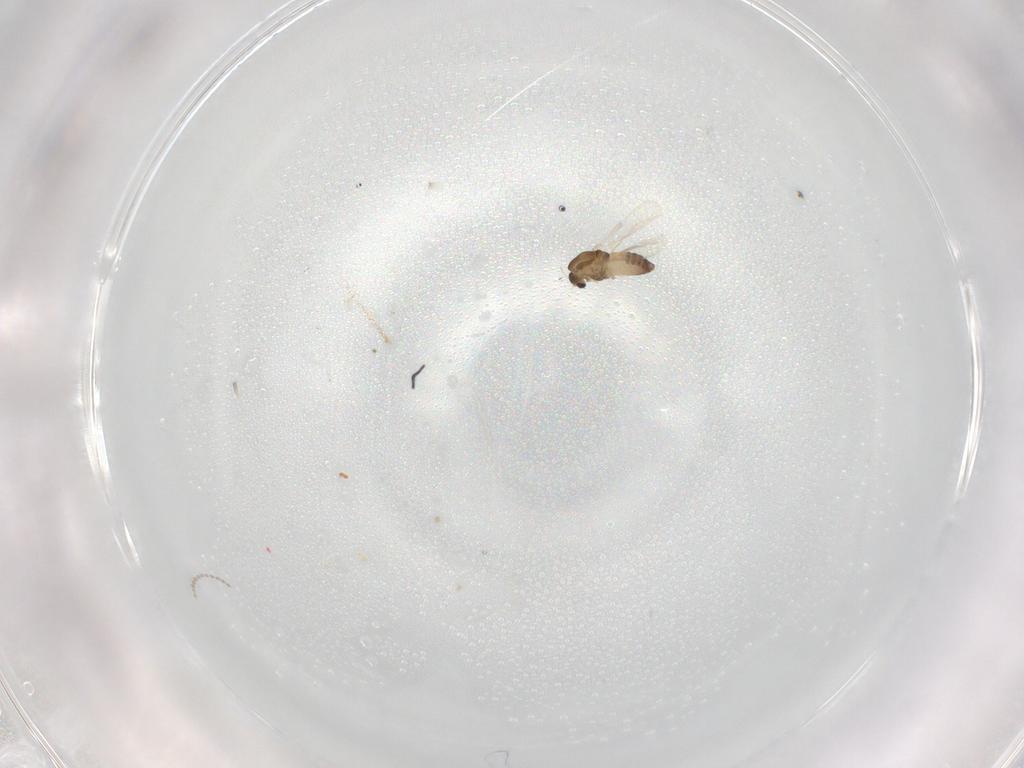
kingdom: Animalia
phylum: Arthropoda
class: Insecta
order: Diptera
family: Chironomidae
